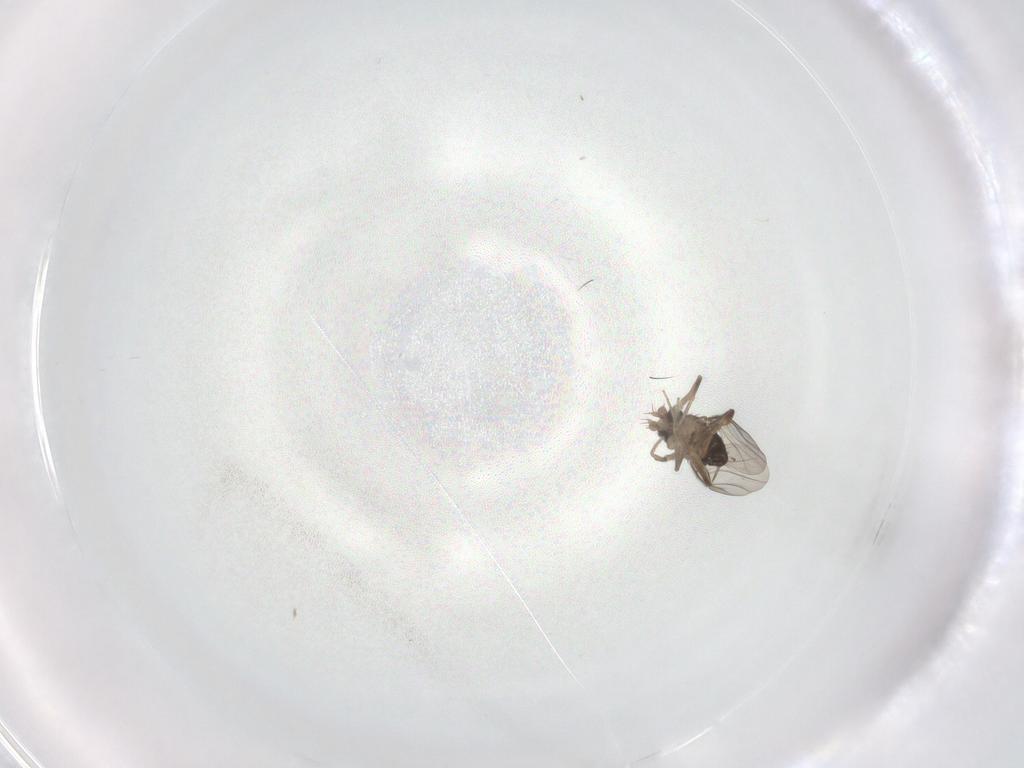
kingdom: Animalia
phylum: Arthropoda
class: Insecta
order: Diptera
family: Phoridae
